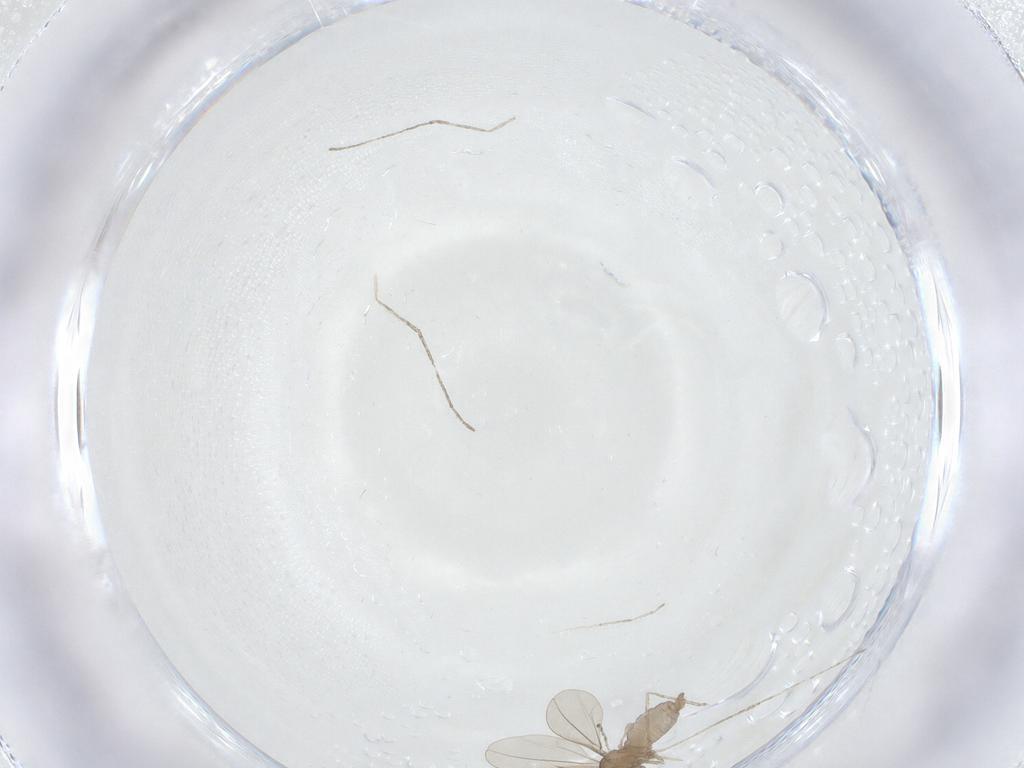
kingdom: Animalia
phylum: Arthropoda
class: Insecta
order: Diptera
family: Cecidomyiidae
